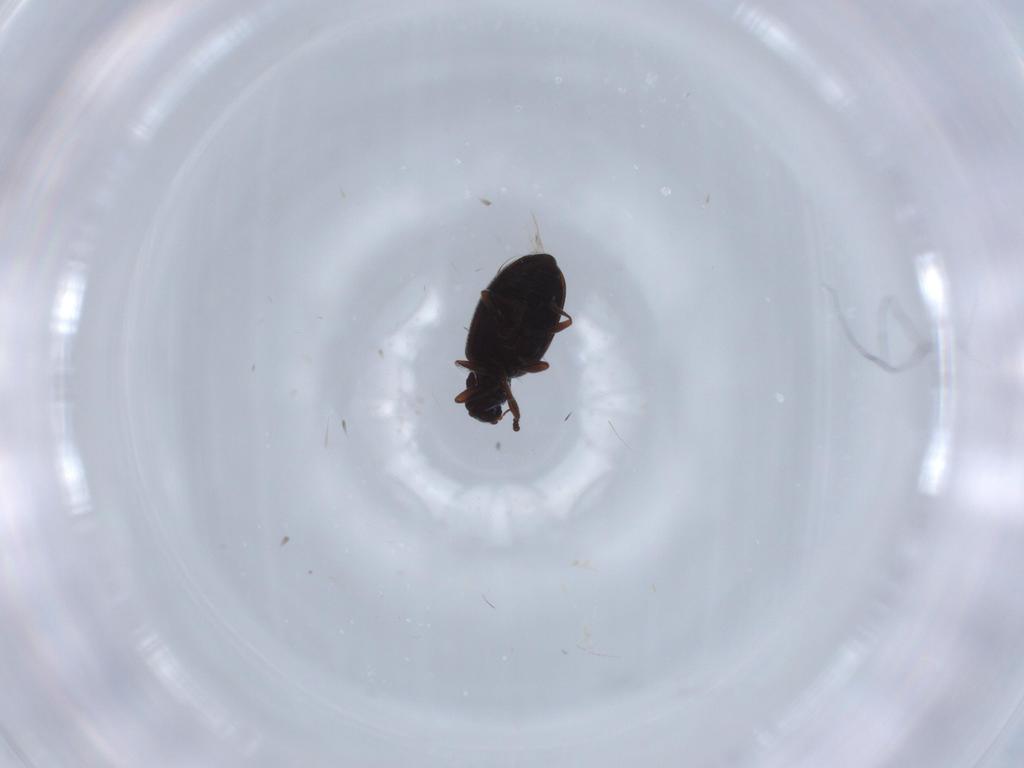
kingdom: Animalia
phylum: Arthropoda
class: Insecta
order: Coleoptera
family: Latridiidae
